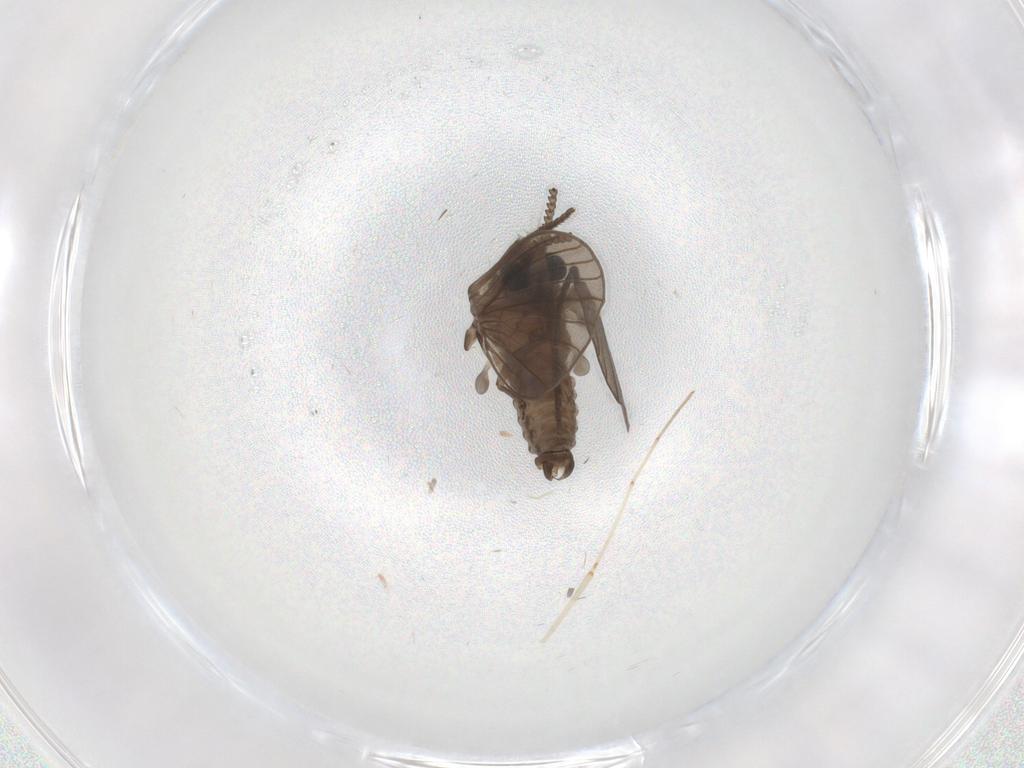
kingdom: Animalia
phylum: Arthropoda
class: Insecta
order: Diptera
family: Psychodidae
